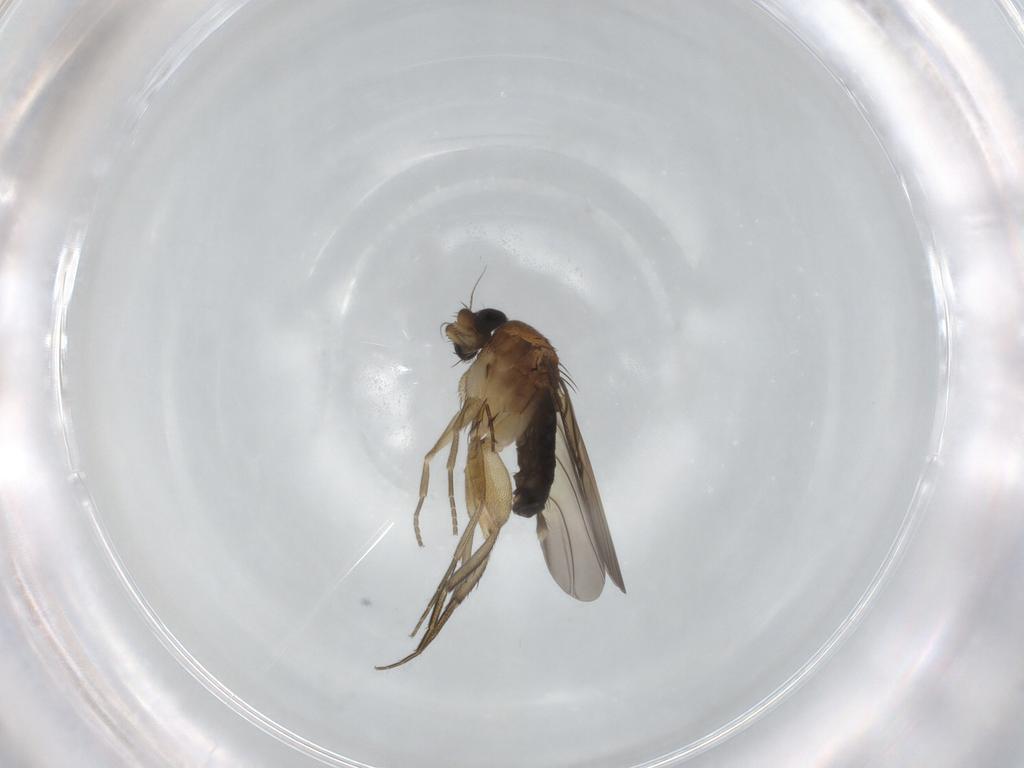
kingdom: Animalia
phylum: Arthropoda
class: Insecta
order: Diptera
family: Phoridae
